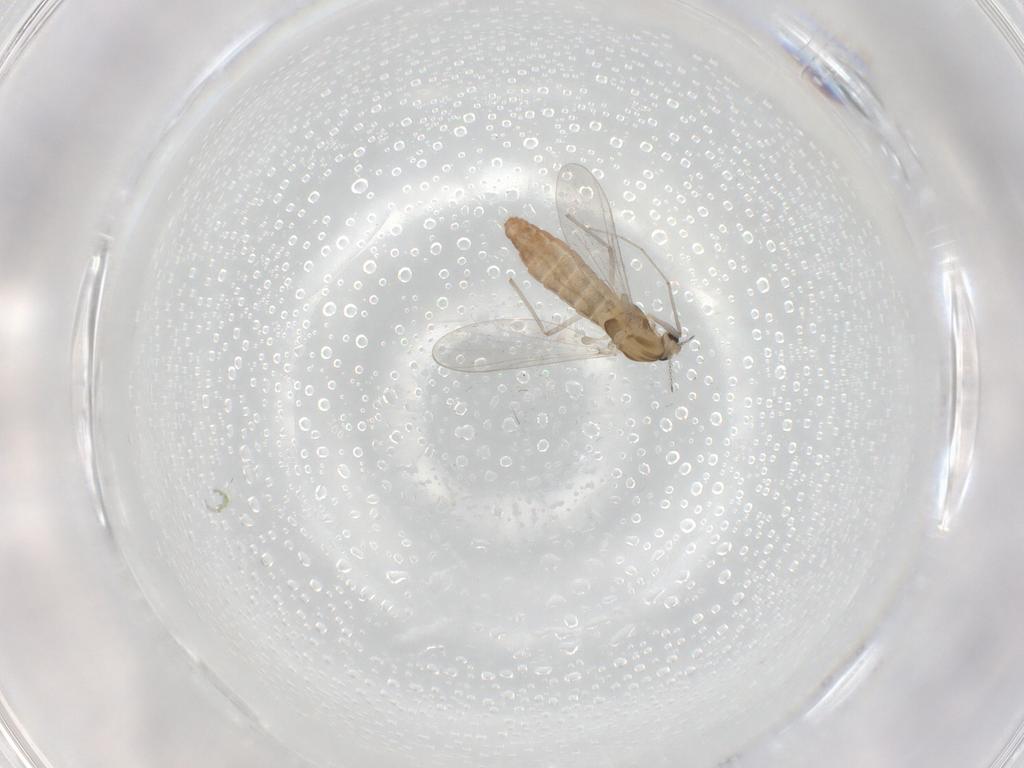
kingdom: Animalia
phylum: Arthropoda
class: Insecta
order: Diptera
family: Chironomidae
